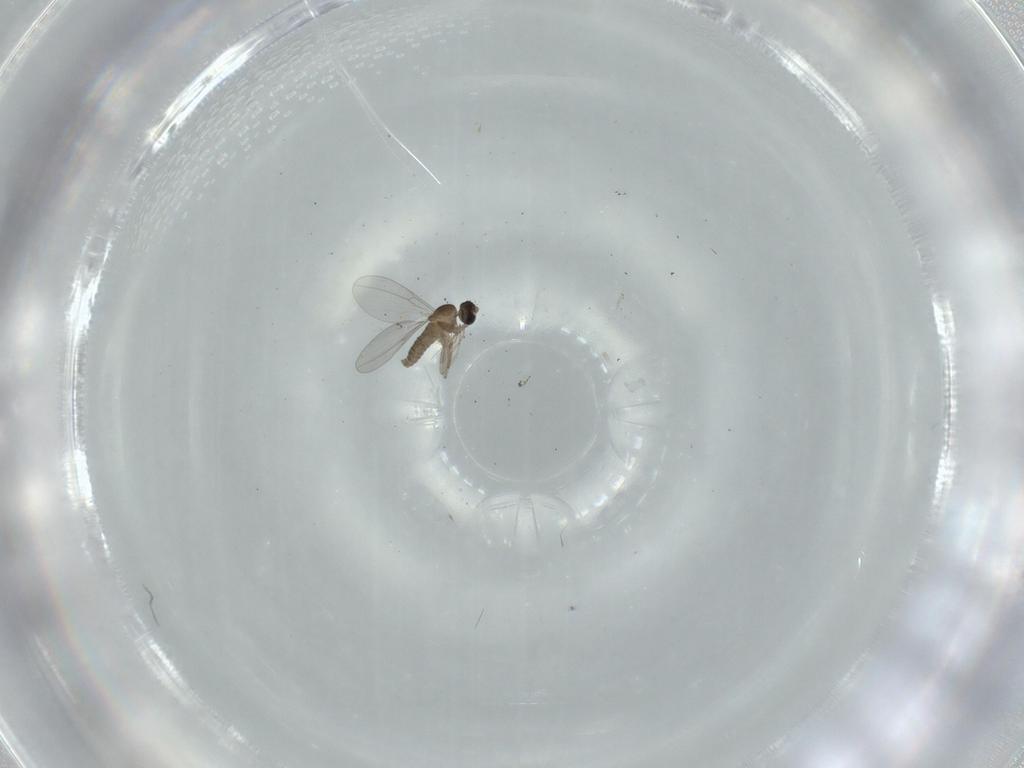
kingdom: Animalia
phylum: Arthropoda
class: Insecta
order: Diptera
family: Cecidomyiidae
